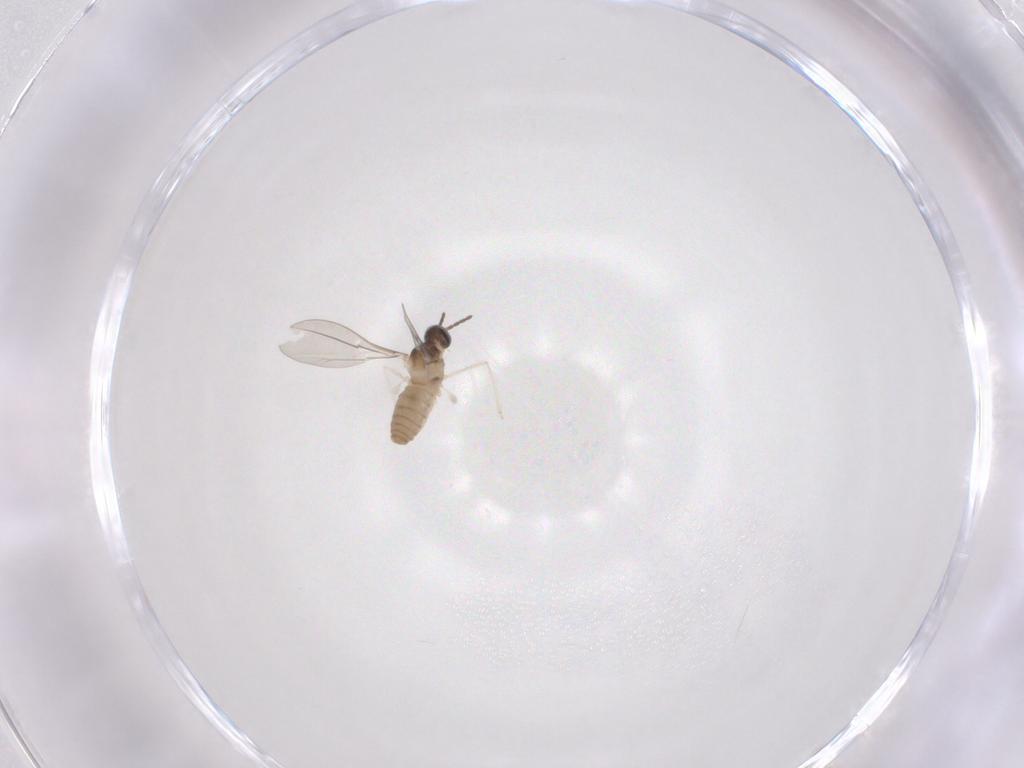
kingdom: Animalia
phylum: Arthropoda
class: Insecta
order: Diptera
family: Cecidomyiidae
